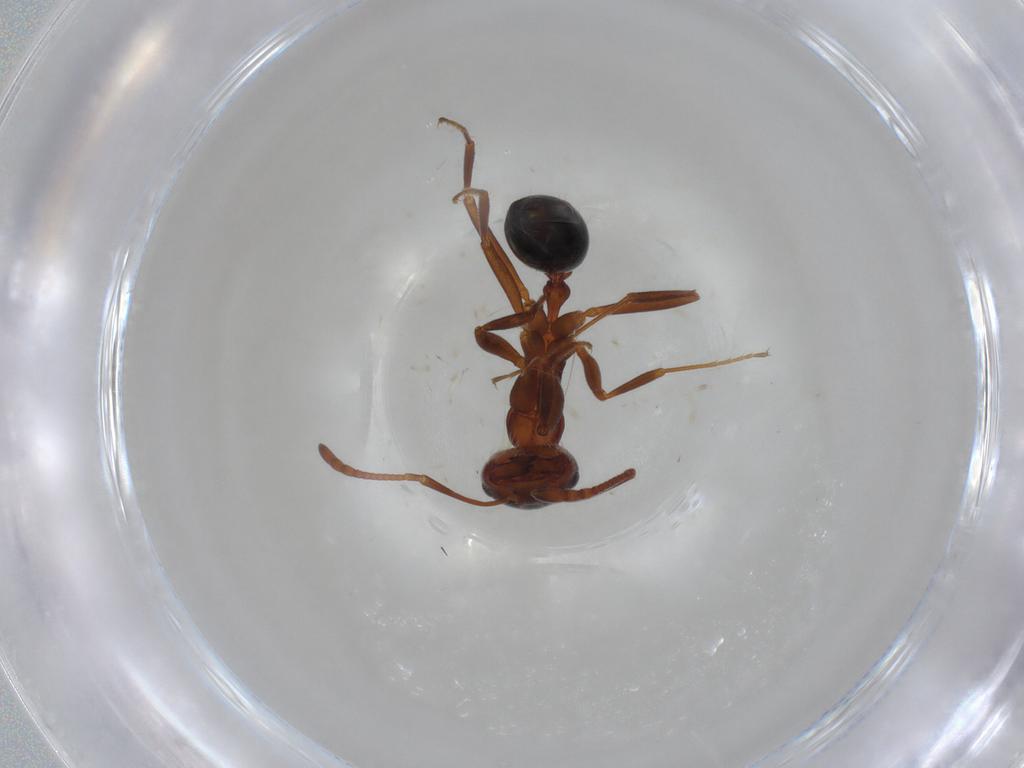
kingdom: Animalia
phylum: Arthropoda
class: Insecta
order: Hymenoptera
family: Formicidae
